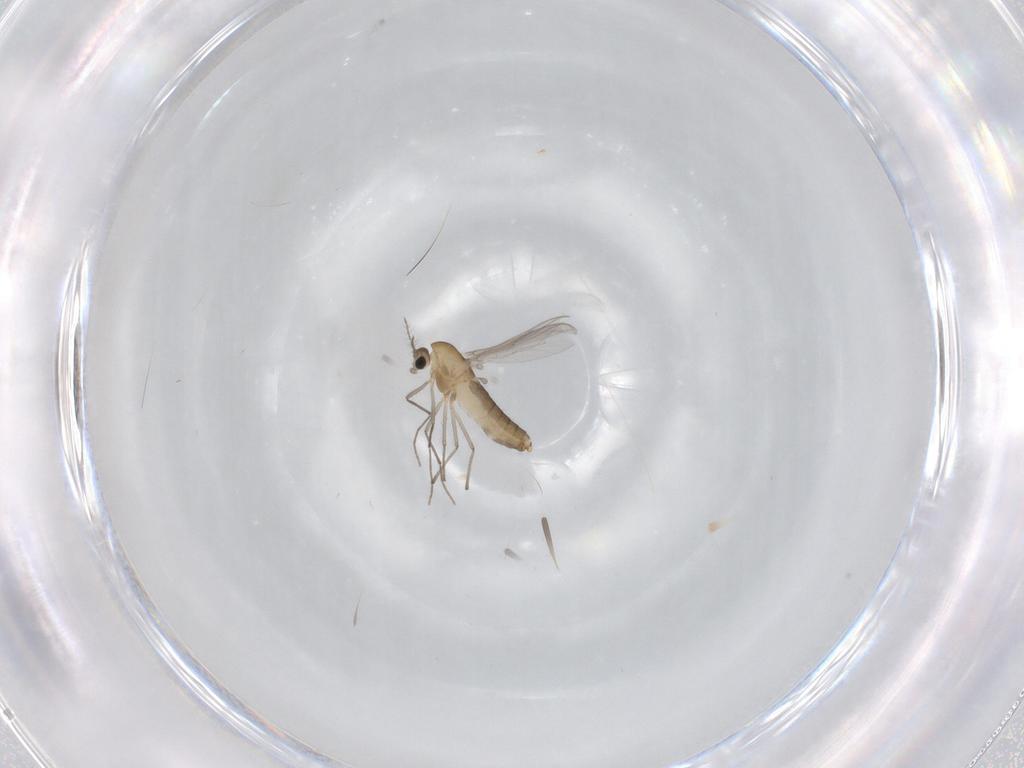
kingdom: Animalia
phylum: Arthropoda
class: Insecta
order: Diptera
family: Chironomidae
